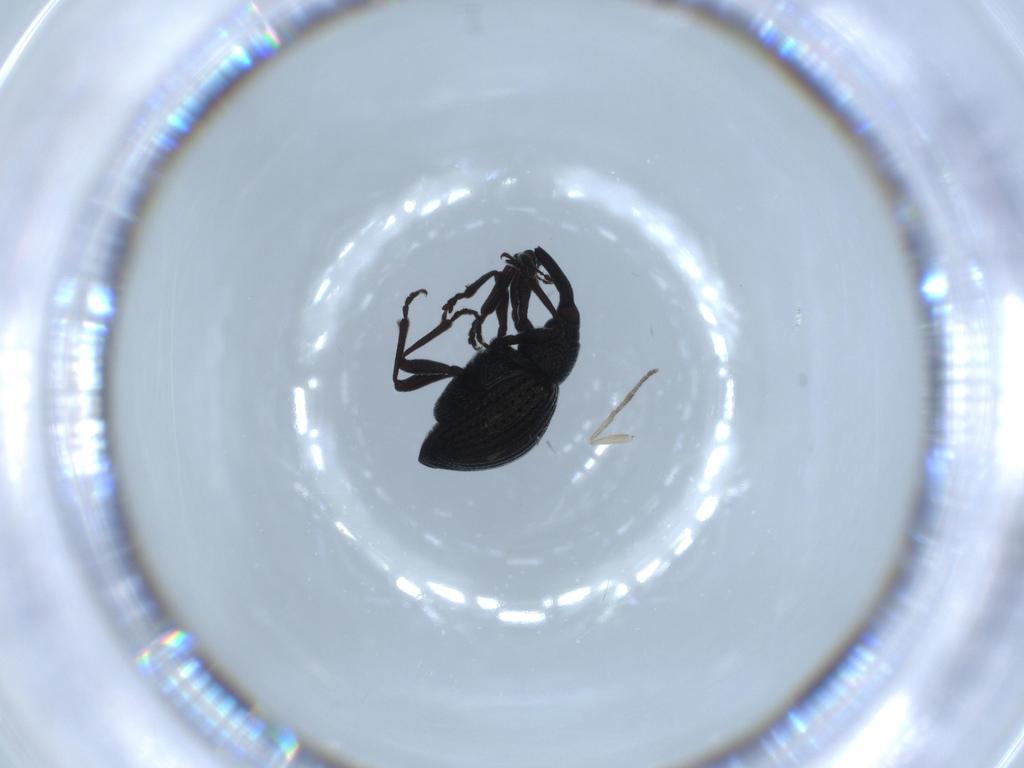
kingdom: Animalia
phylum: Arthropoda
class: Insecta
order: Coleoptera
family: Brentidae
